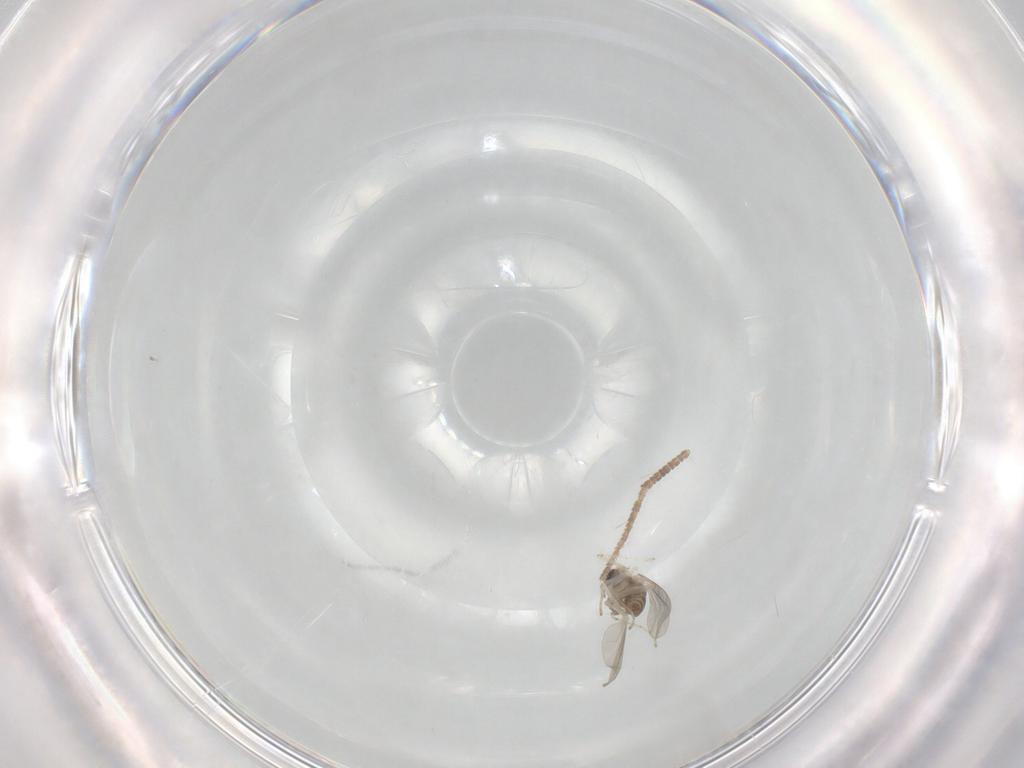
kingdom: Animalia
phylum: Arthropoda
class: Insecta
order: Diptera
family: Cecidomyiidae
